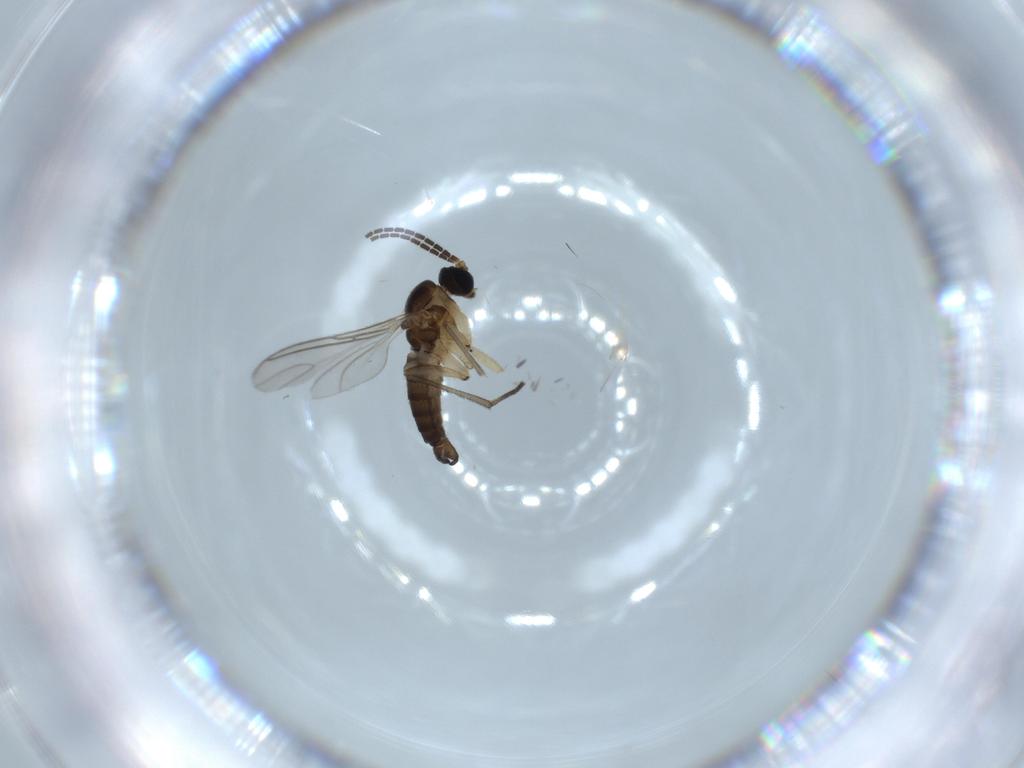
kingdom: Animalia
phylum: Arthropoda
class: Insecta
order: Diptera
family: Sciaridae
